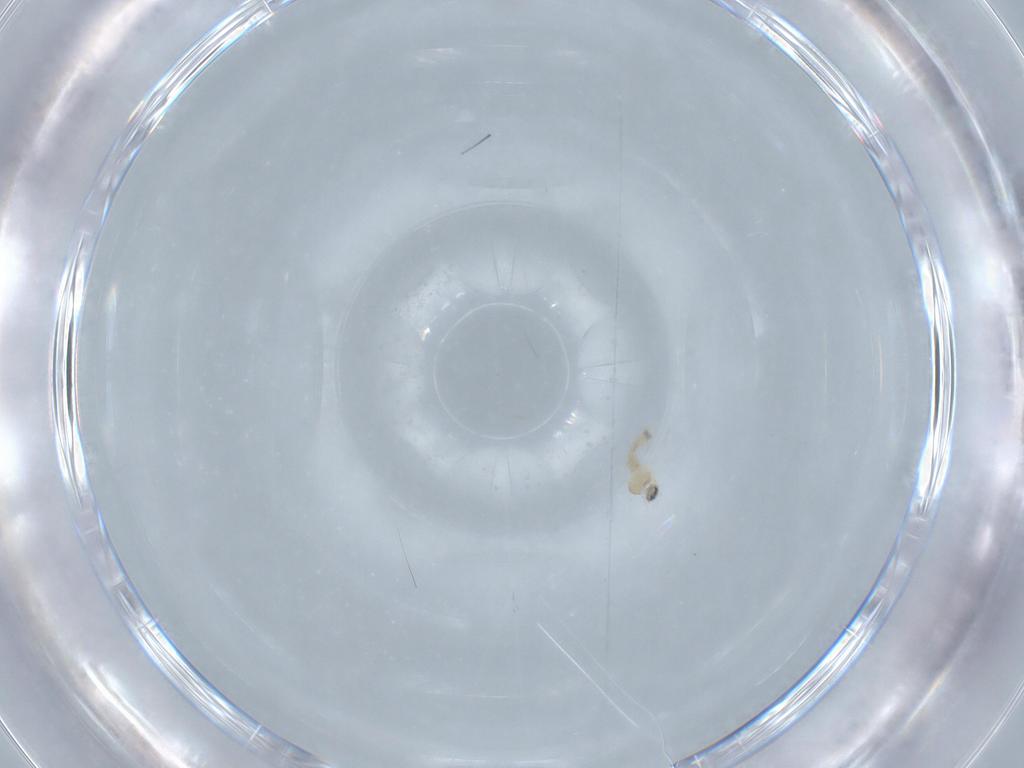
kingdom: Animalia
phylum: Arthropoda
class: Insecta
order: Diptera
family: Ceratopogonidae
